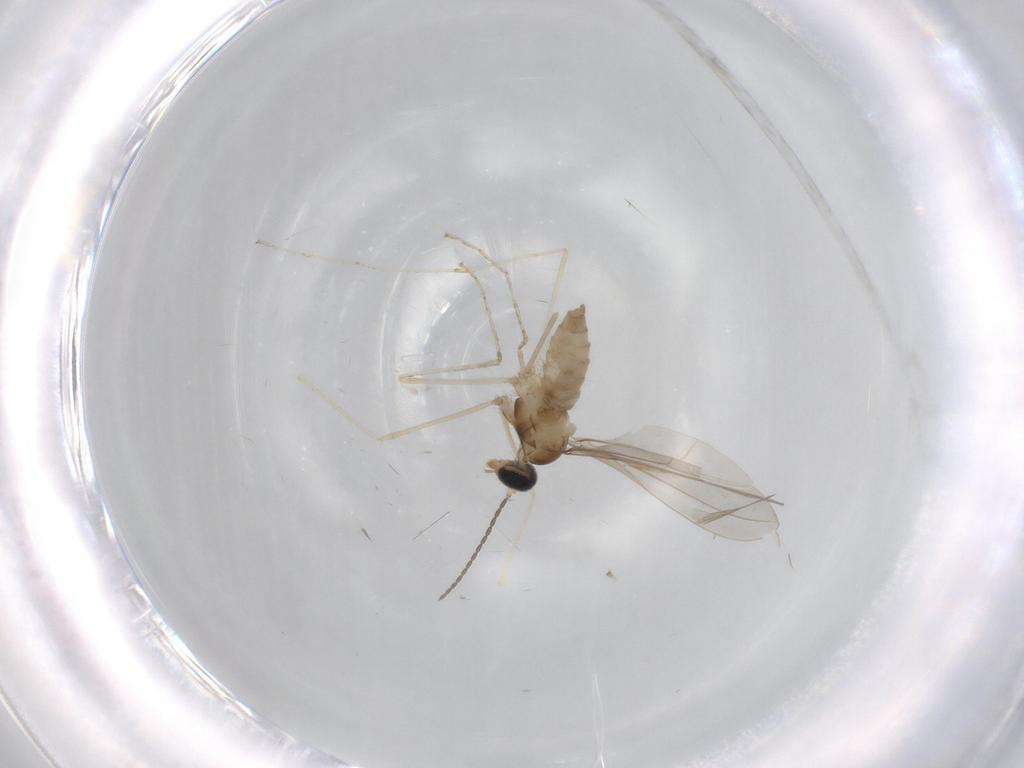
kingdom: Animalia
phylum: Arthropoda
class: Insecta
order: Diptera
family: Cecidomyiidae
